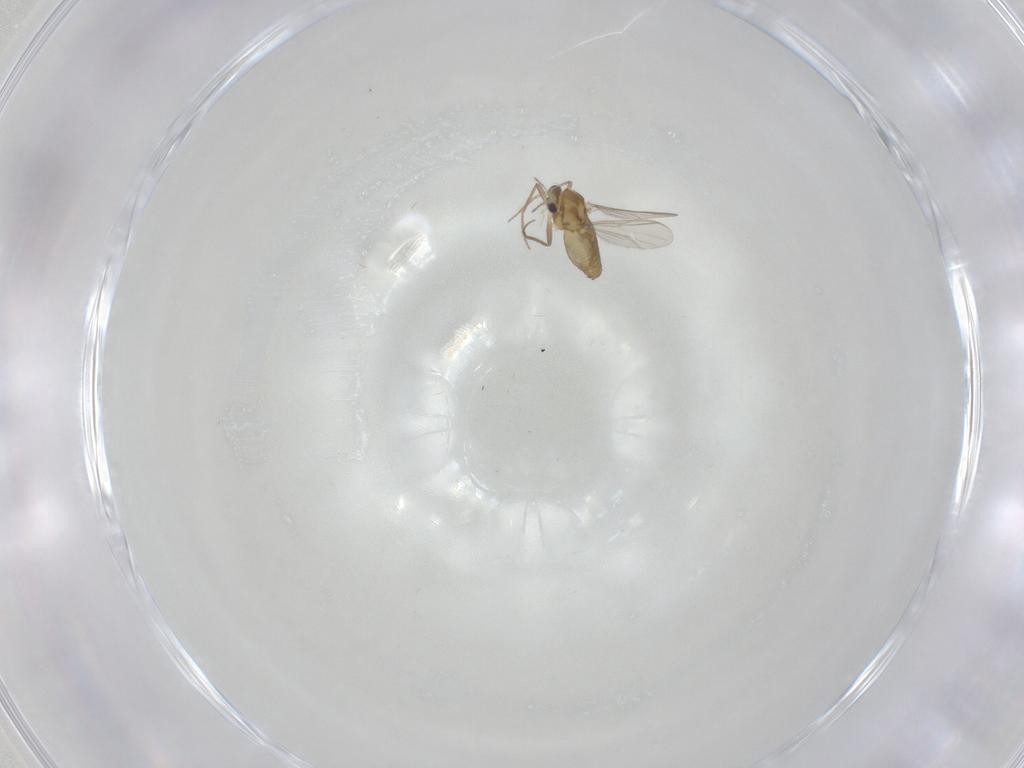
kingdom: Animalia
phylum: Arthropoda
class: Insecta
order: Diptera
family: Chironomidae
